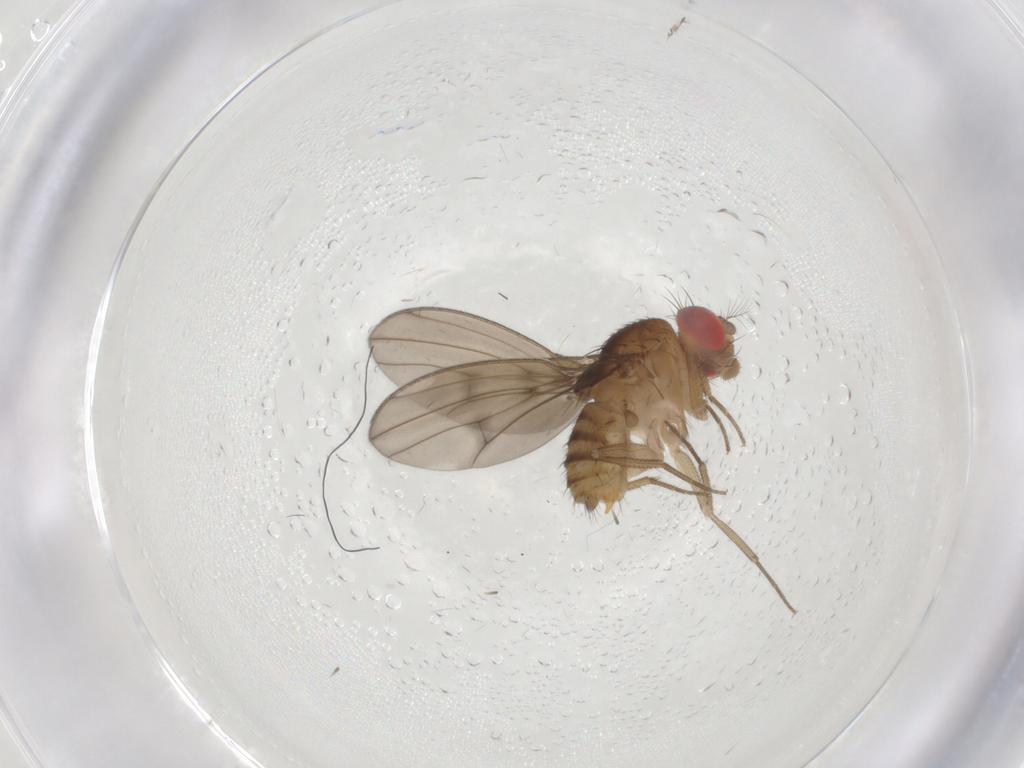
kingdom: Animalia
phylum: Arthropoda
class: Insecta
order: Diptera
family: Drosophilidae
